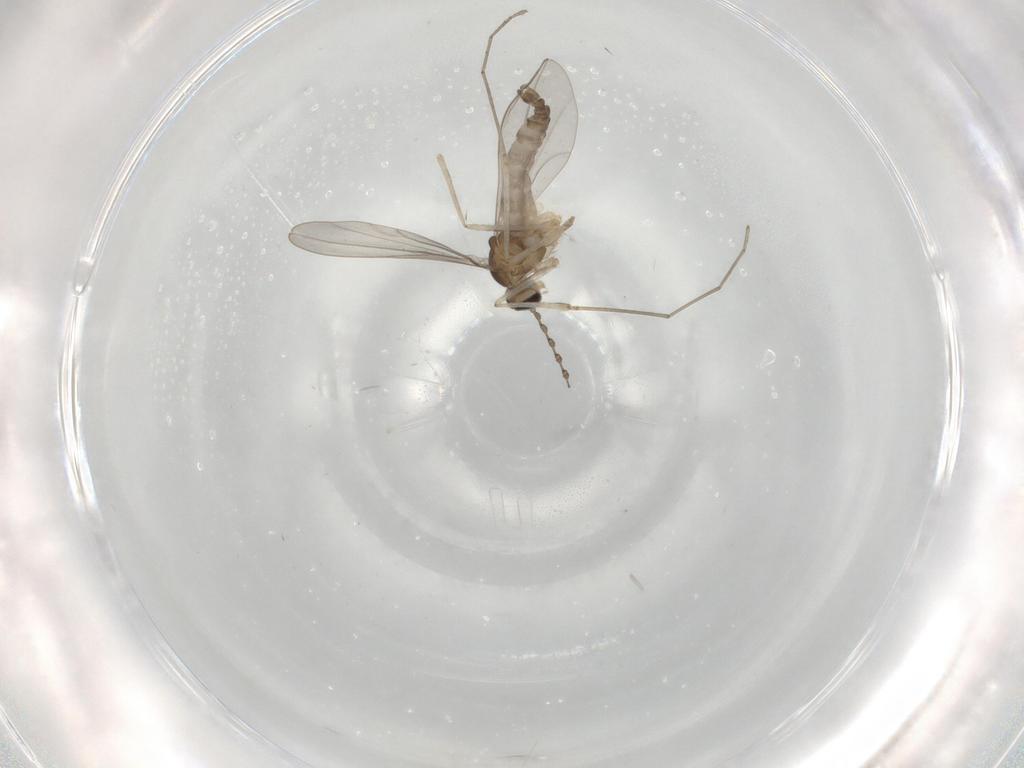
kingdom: Animalia
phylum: Arthropoda
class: Insecta
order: Diptera
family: Cecidomyiidae
